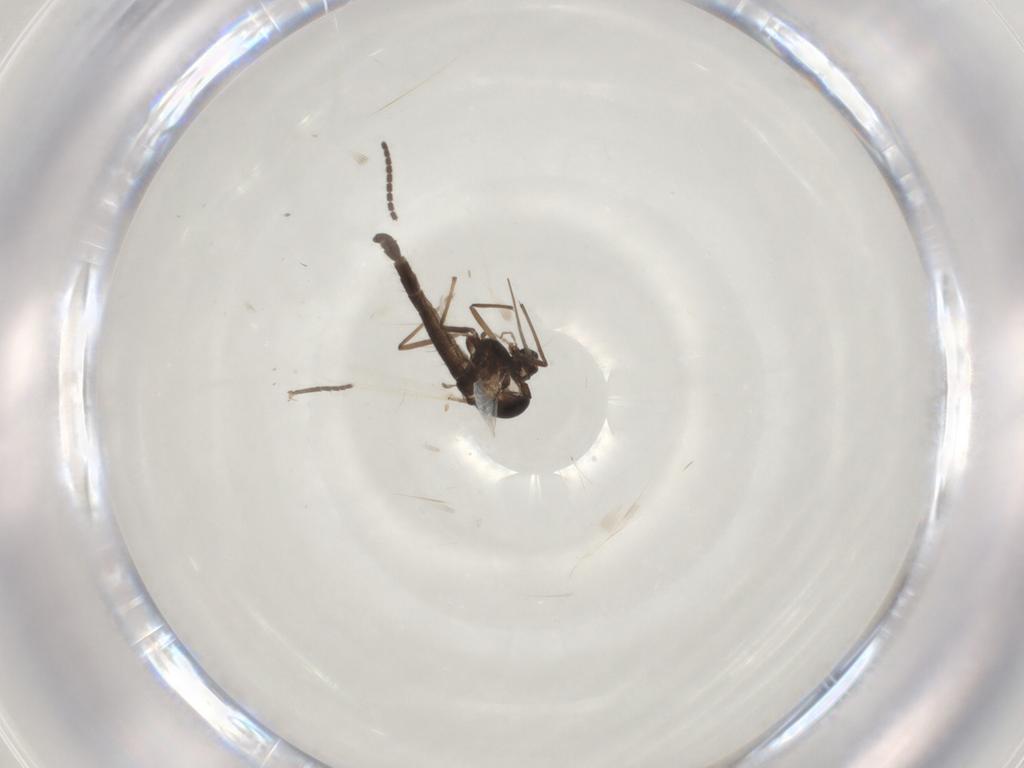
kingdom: Animalia
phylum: Arthropoda
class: Insecta
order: Diptera
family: Chironomidae
